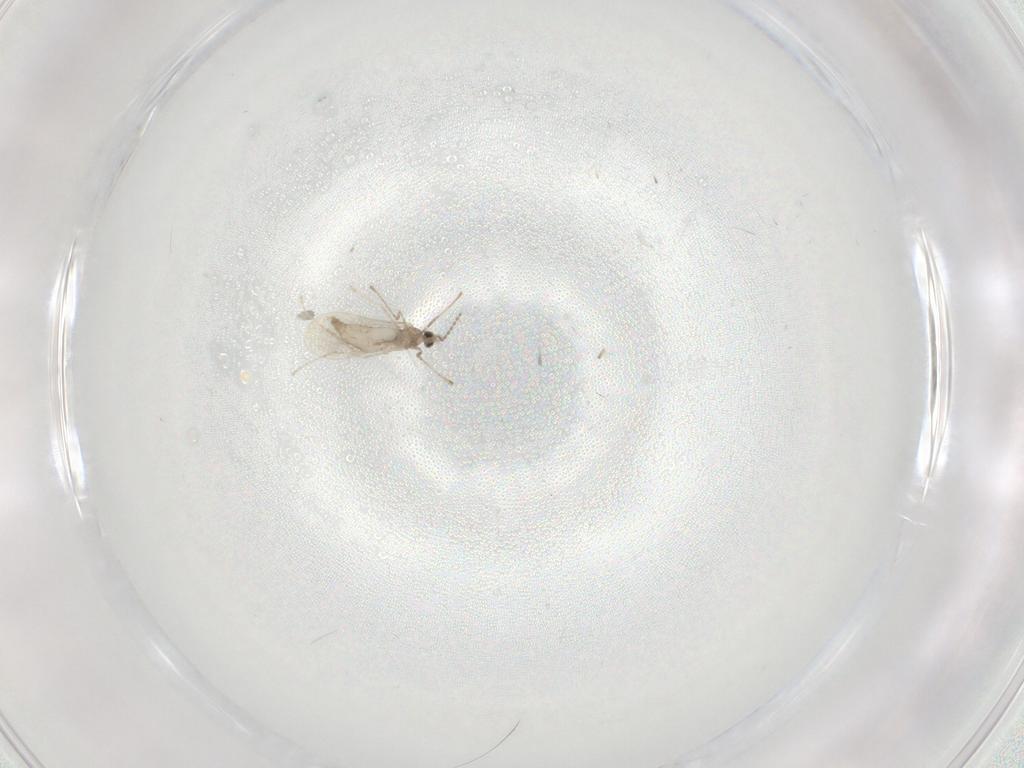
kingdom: Animalia
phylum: Arthropoda
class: Insecta
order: Diptera
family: Cecidomyiidae
